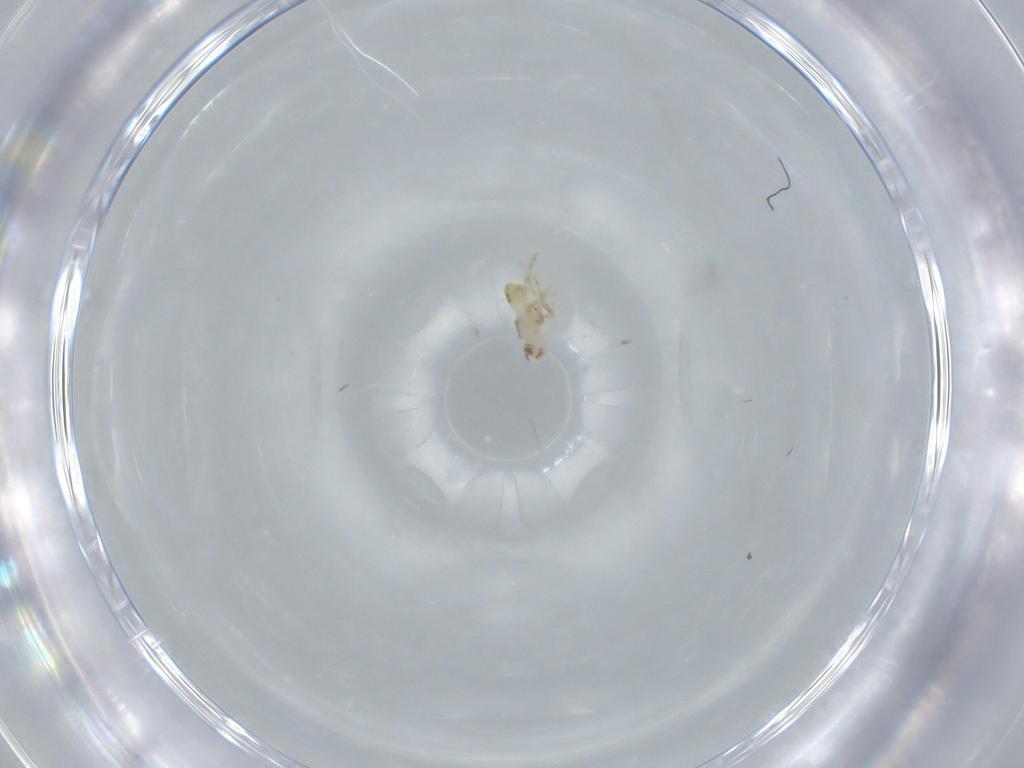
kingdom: Animalia
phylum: Arthropoda
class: Insecta
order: Hemiptera
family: Delphacidae
